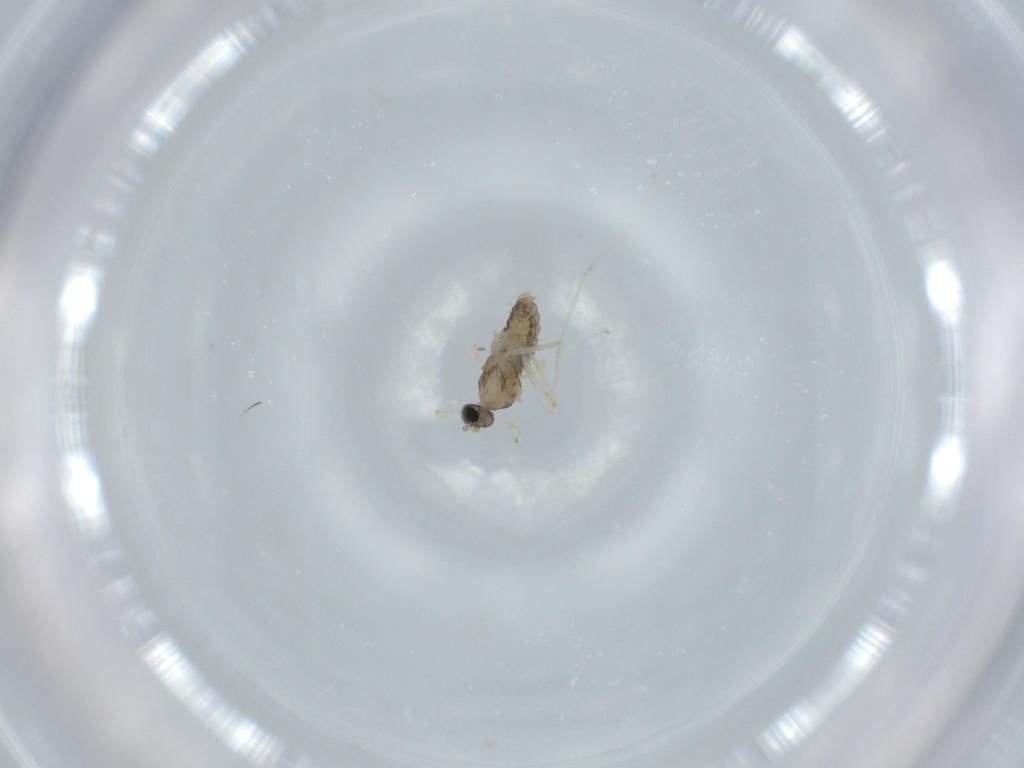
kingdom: Animalia
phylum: Arthropoda
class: Insecta
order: Diptera
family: Cecidomyiidae
